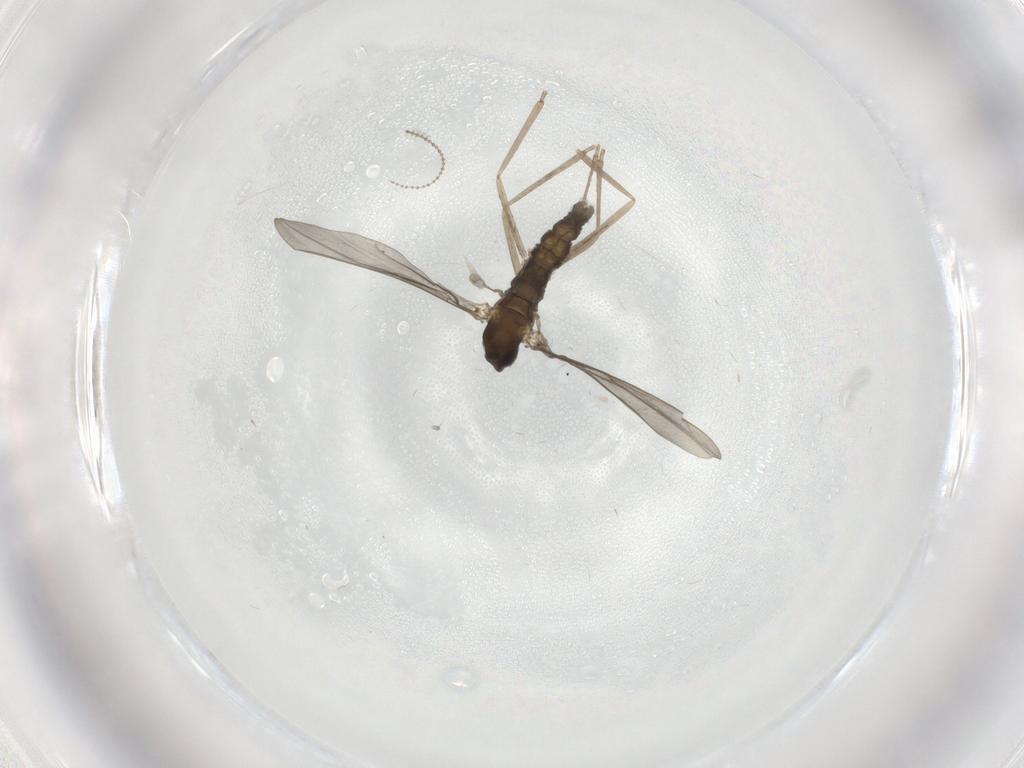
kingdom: Animalia
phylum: Arthropoda
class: Insecta
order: Diptera
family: Cecidomyiidae
